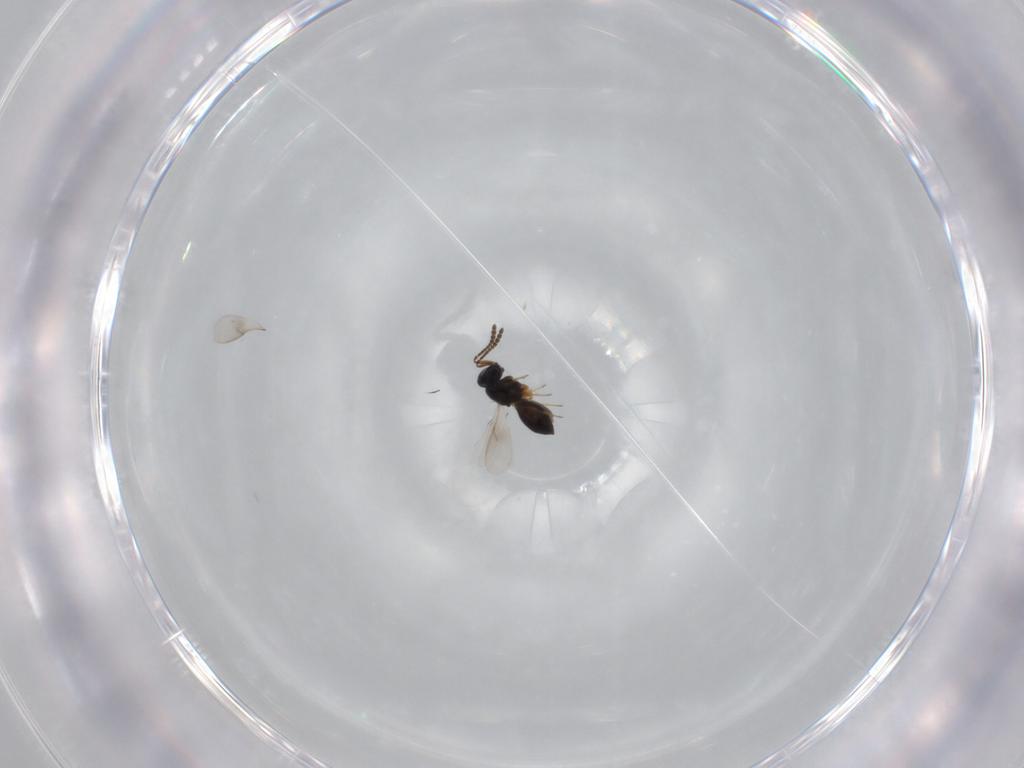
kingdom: Animalia
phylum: Arthropoda
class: Insecta
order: Hymenoptera
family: Scelionidae
